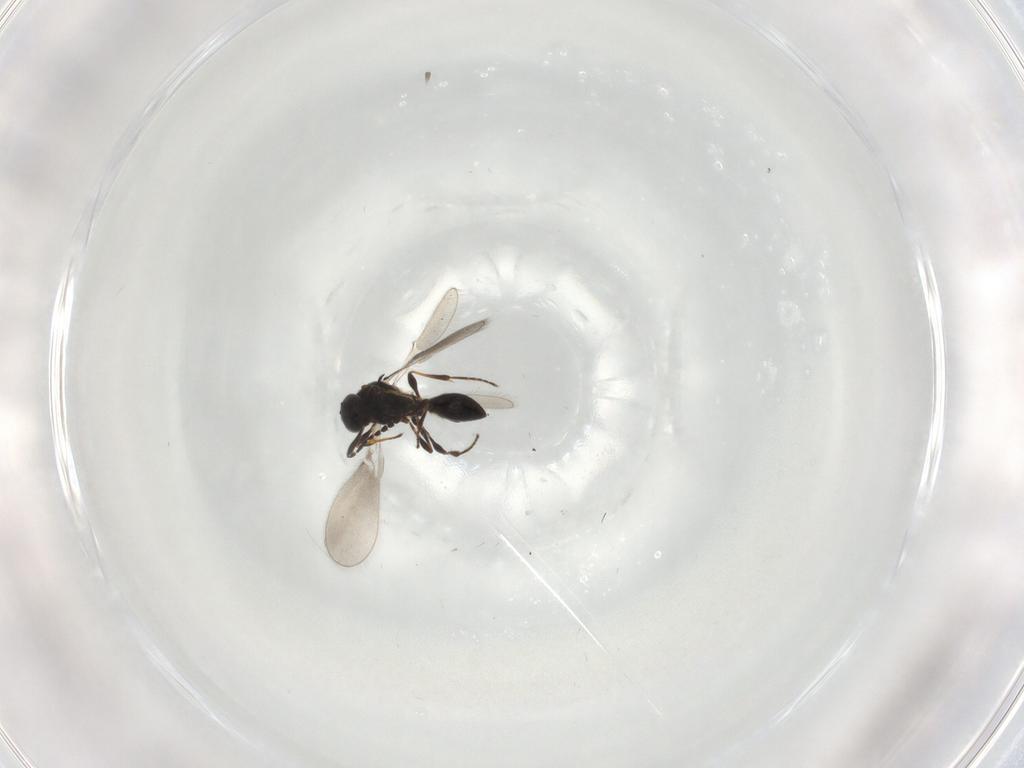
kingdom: Animalia
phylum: Arthropoda
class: Insecta
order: Hymenoptera
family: Platygastridae
